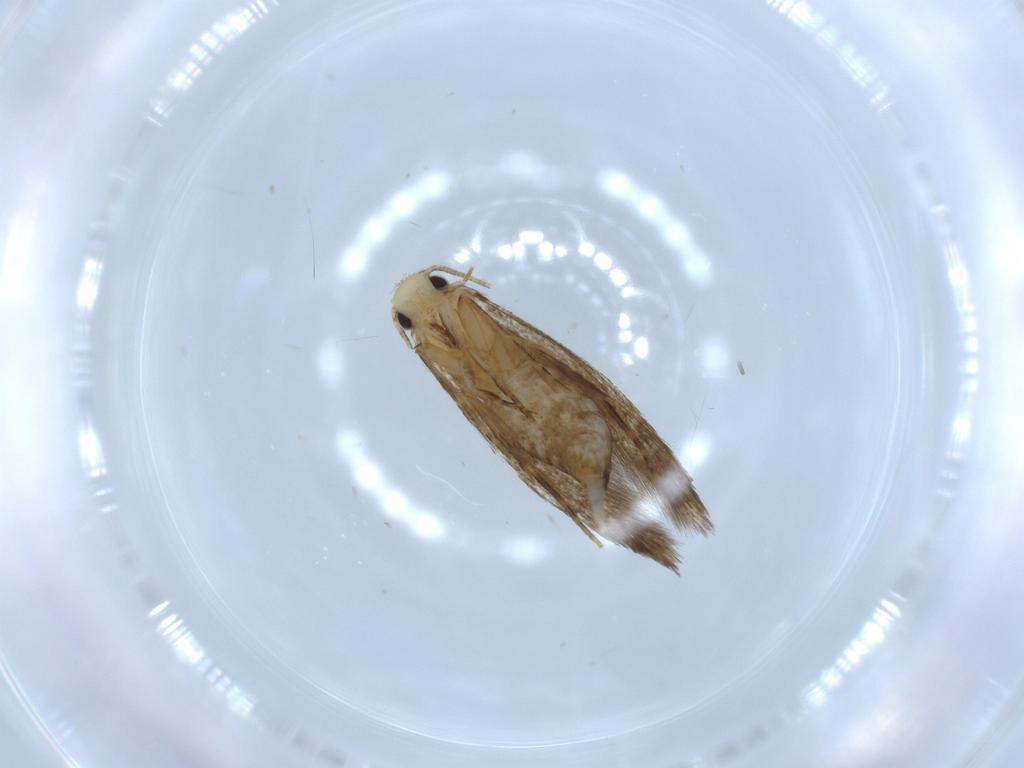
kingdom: Animalia
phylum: Arthropoda
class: Insecta
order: Lepidoptera
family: Tineidae
